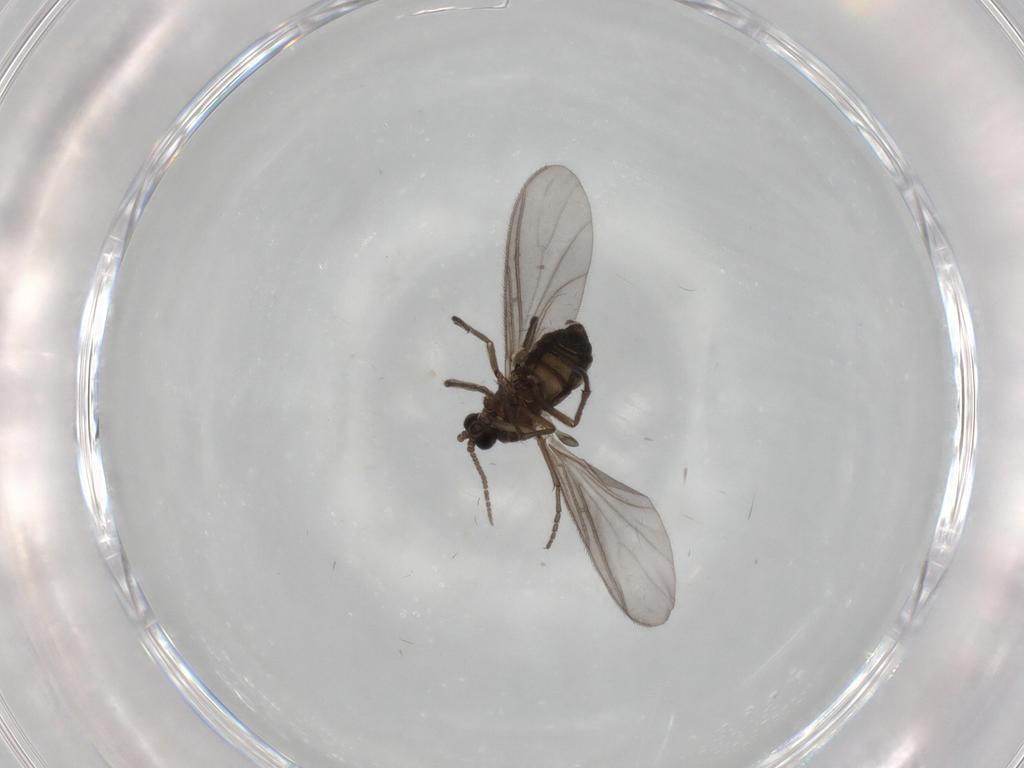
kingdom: Animalia
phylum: Arthropoda
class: Insecta
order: Diptera
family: Sciaridae
